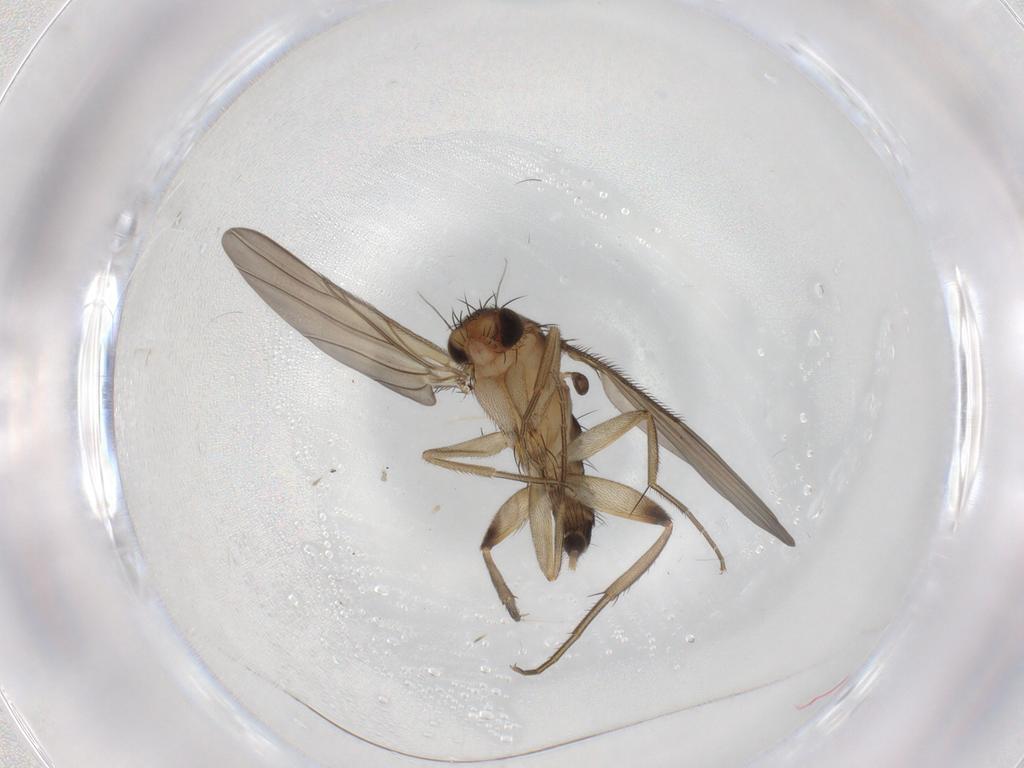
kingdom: Animalia
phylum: Arthropoda
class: Insecta
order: Diptera
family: Phoridae
